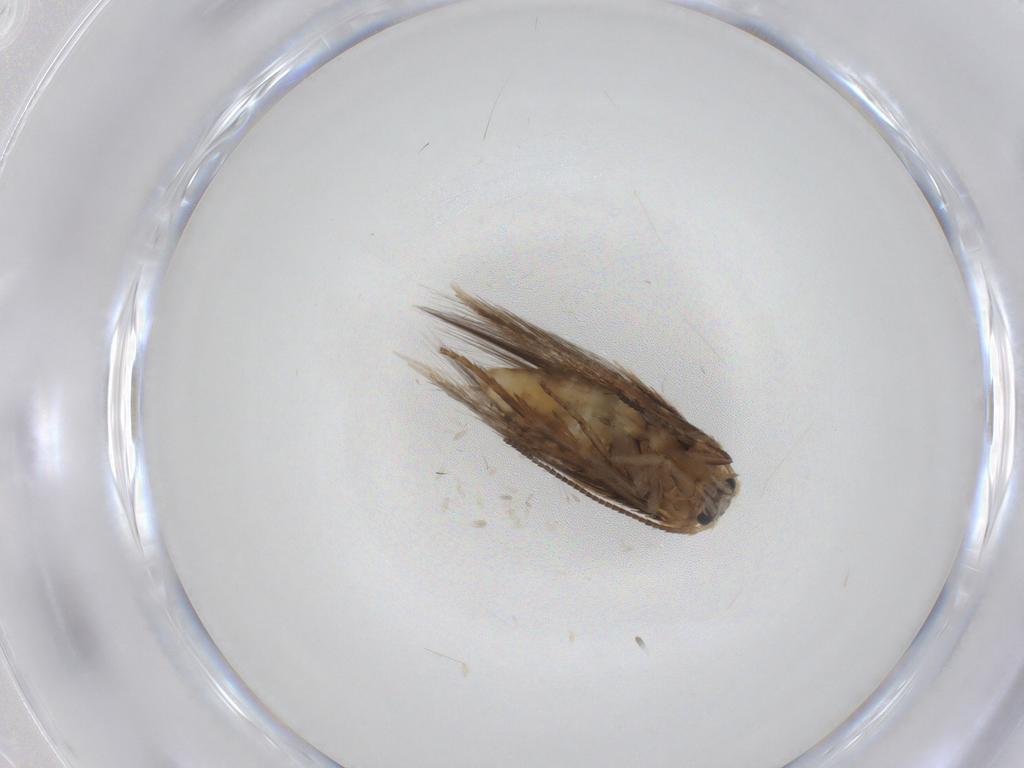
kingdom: Animalia
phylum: Arthropoda
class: Insecta
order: Lepidoptera
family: Nepticulidae
